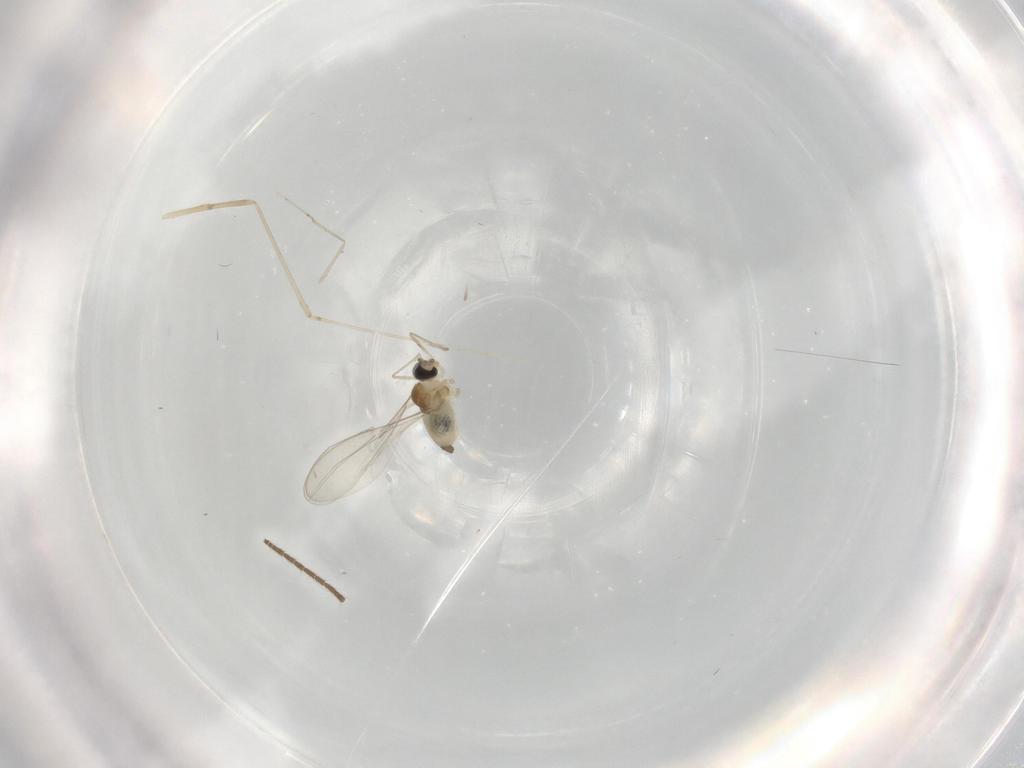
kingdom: Animalia
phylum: Arthropoda
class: Insecta
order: Diptera
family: Cecidomyiidae
